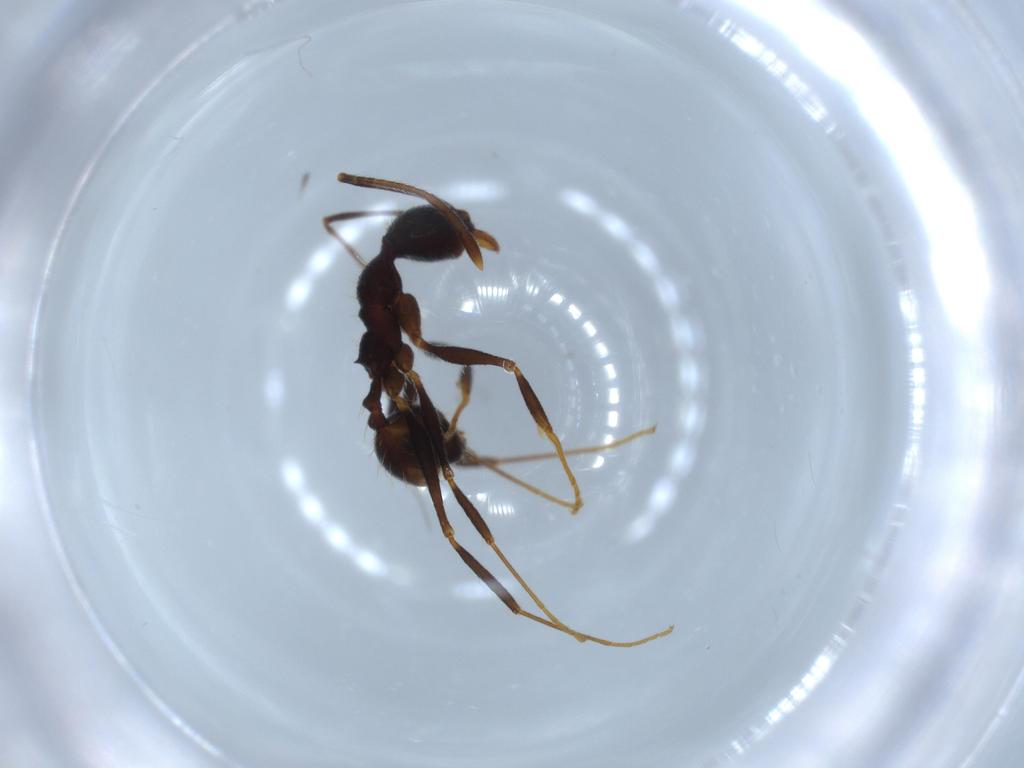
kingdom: Animalia
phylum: Arthropoda
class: Insecta
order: Hymenoptera
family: Formicidae
